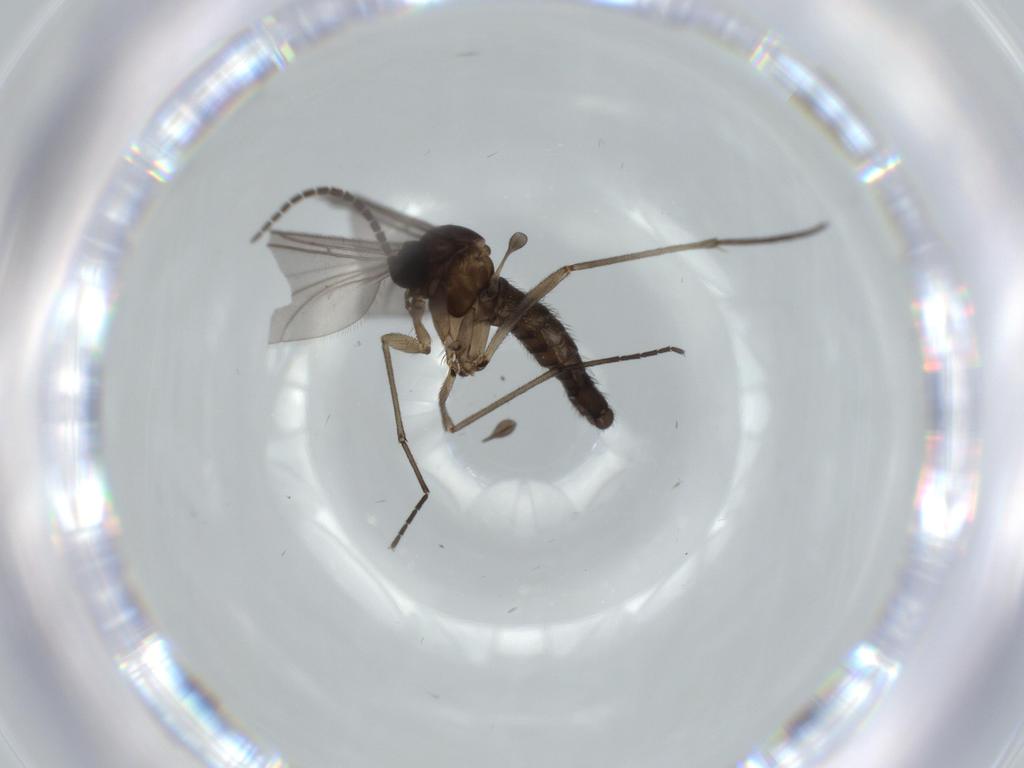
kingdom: Animalia
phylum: Arthropoda
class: Insecta
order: Diptera
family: Sciaridae
